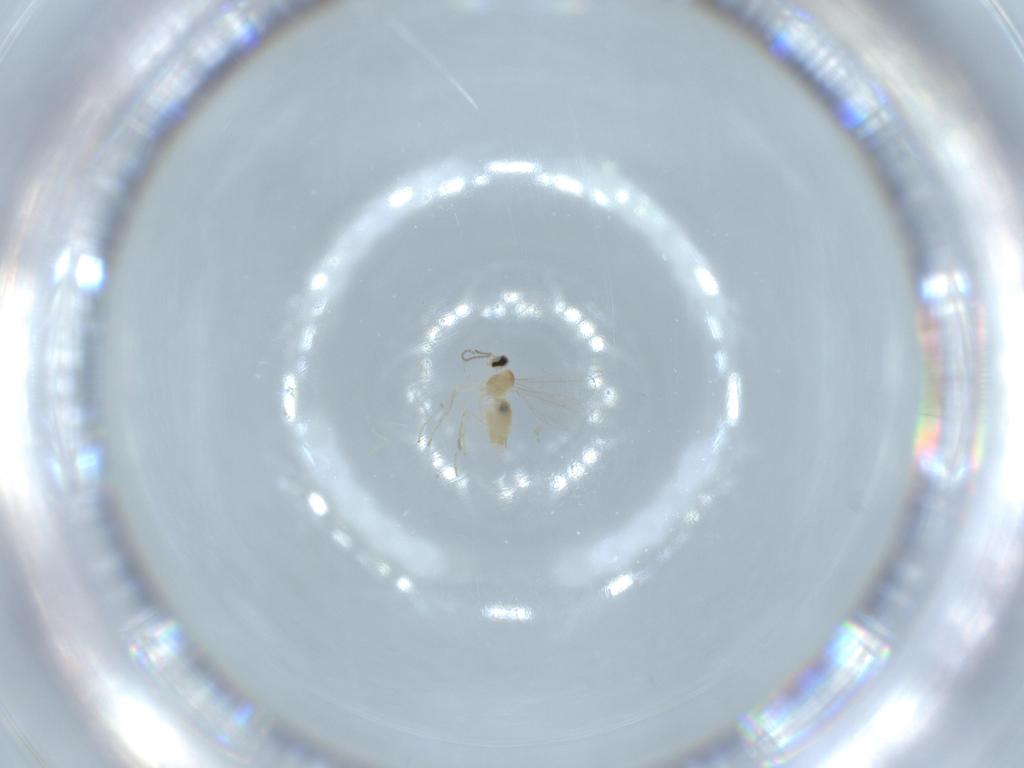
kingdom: Animalia
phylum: Arthropoda
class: Insecta
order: Diptera
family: Cecidomyiidae
